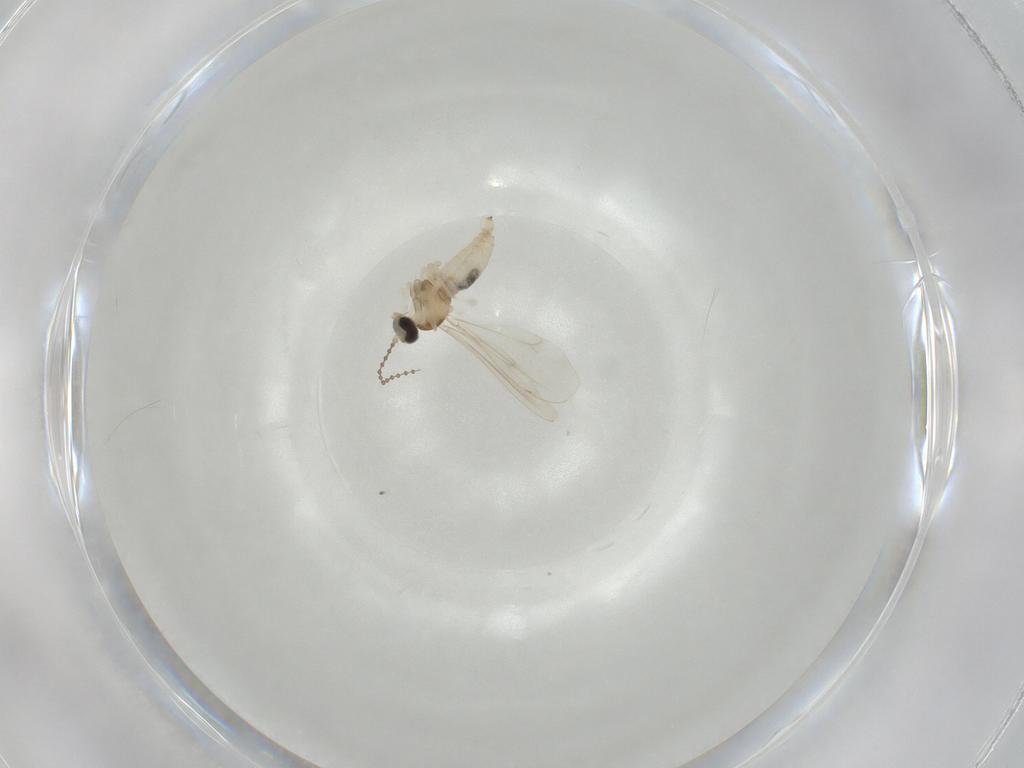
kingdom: Animalia
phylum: Arthropoda
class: Insecta
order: Diptera
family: Cecidomyiidae
